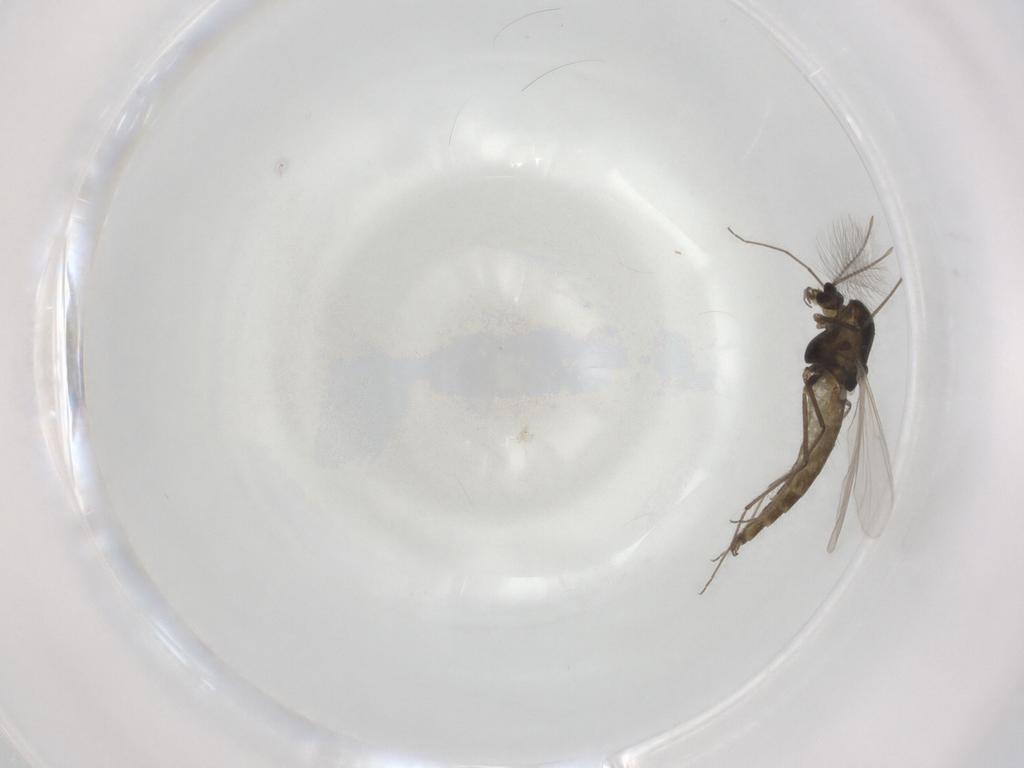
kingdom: Animalia
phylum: Arthropoda
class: Insecta
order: Diptera
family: Chironomidae
